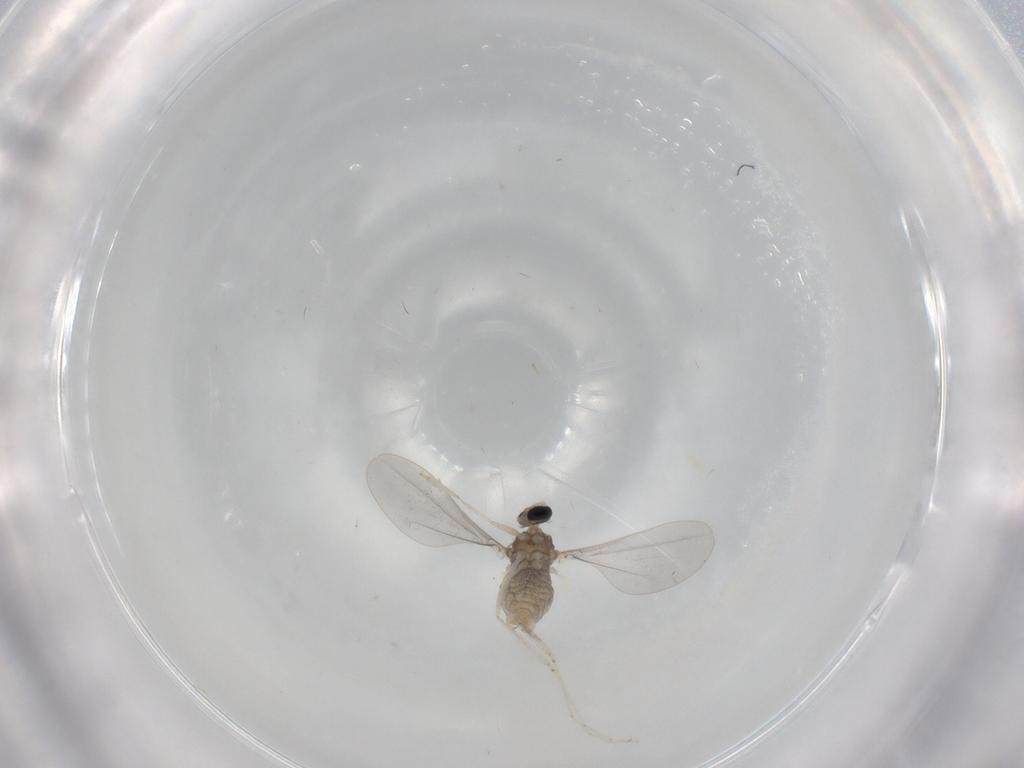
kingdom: Animalia
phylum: Arthropoda
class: Insecta
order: Diptera
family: Cecidomyiidae
